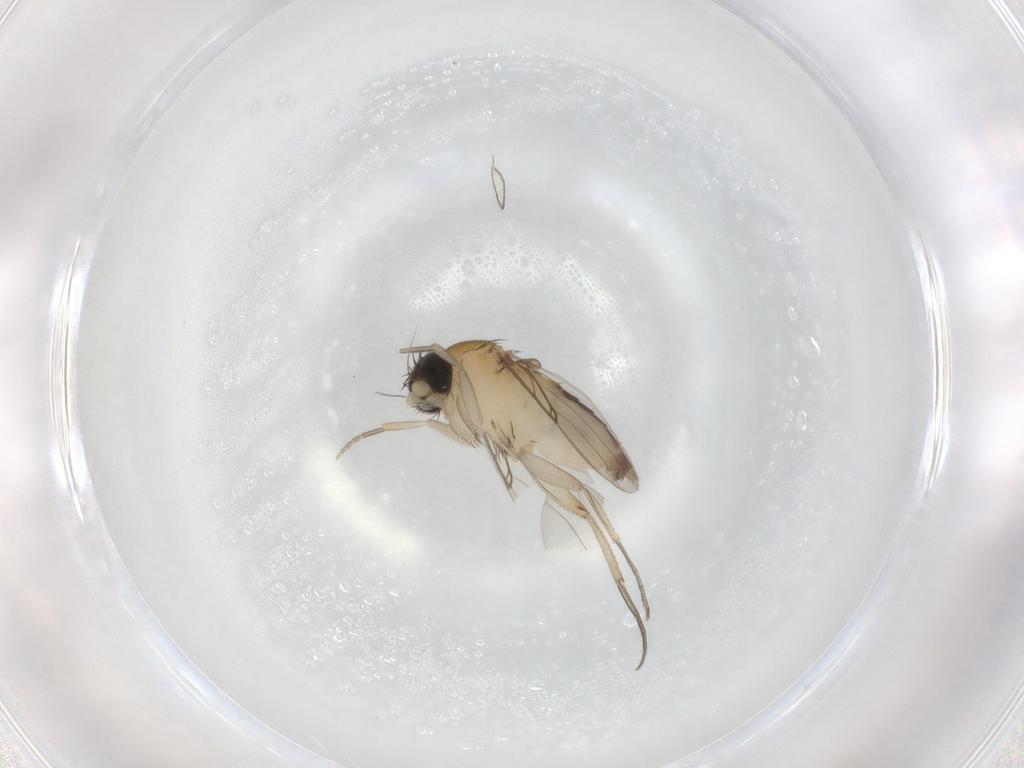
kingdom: Animalia
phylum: Arthropoda
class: Insecta
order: Diptera
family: Phoridae
